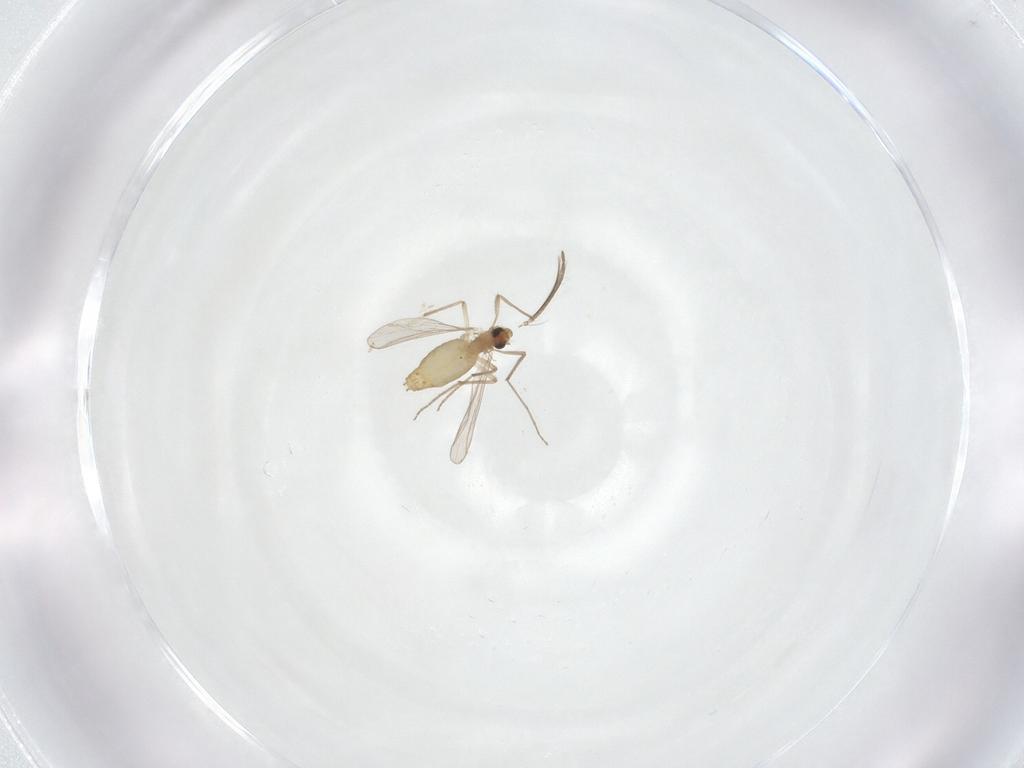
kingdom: Animalia
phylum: Arthropoda
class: Insecta
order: Diptera
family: Chironomidae
